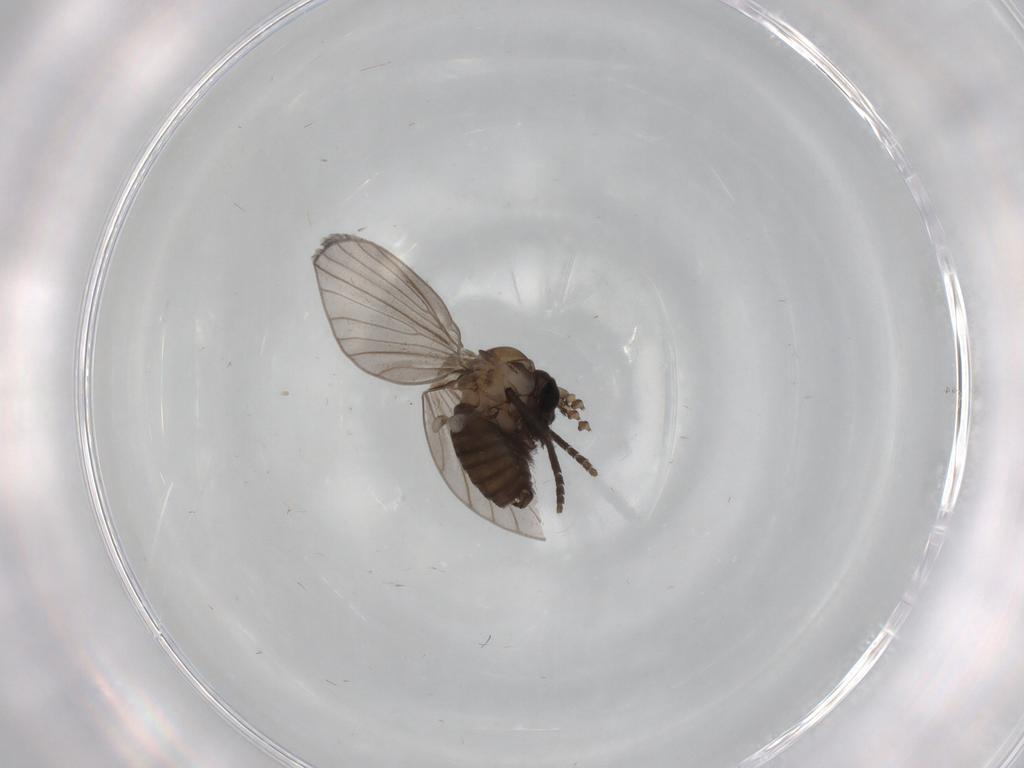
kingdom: Animalia
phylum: Arthropoda
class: Insecta
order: Diptera
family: Psychodidae
